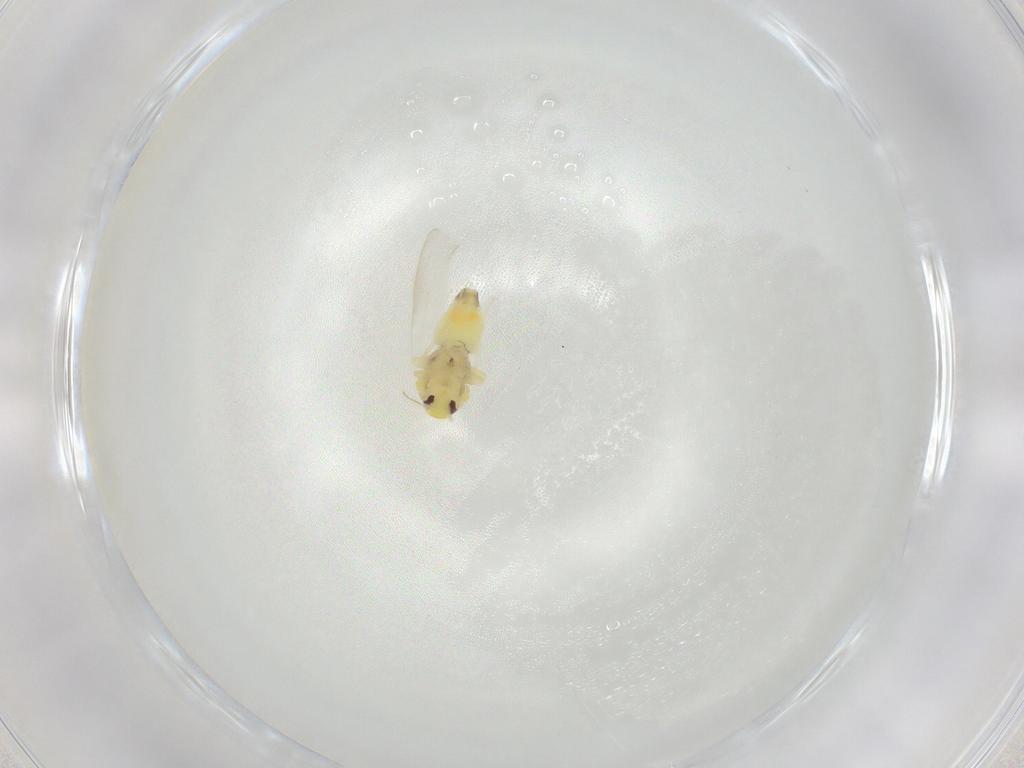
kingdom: Animalia
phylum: Arthropoda
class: Insecta
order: Hemiptera
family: Aleyrodidae
